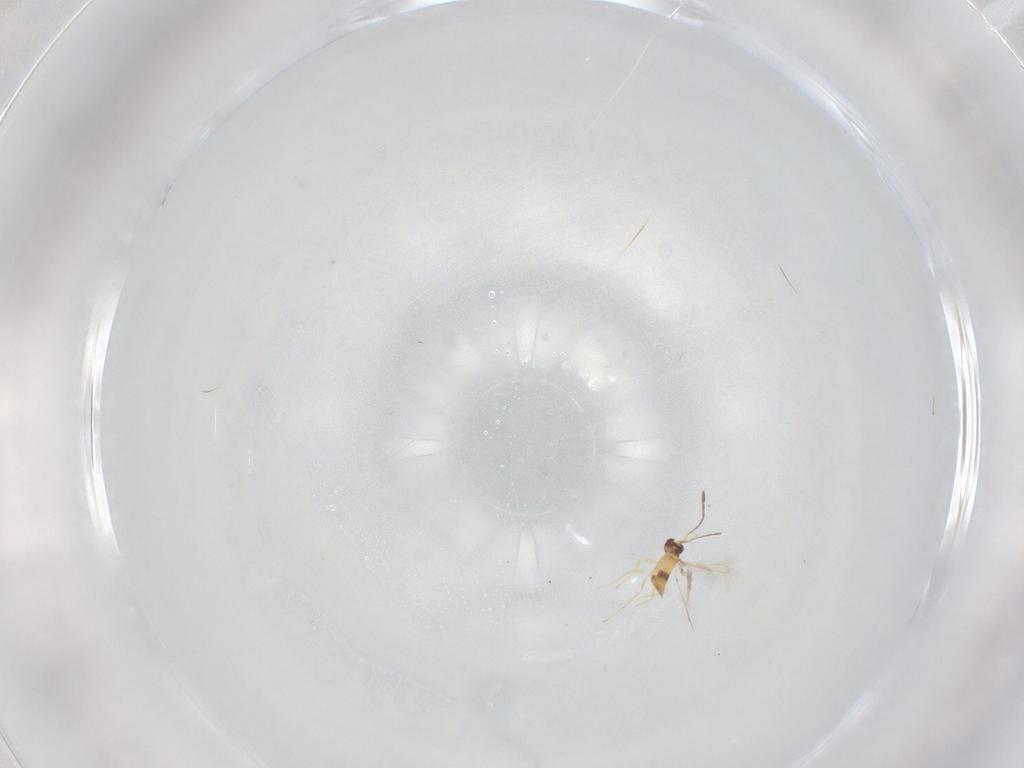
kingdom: Animalia
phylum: Arthropoda
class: Insecta
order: Hymenoptera
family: Mymaridae
